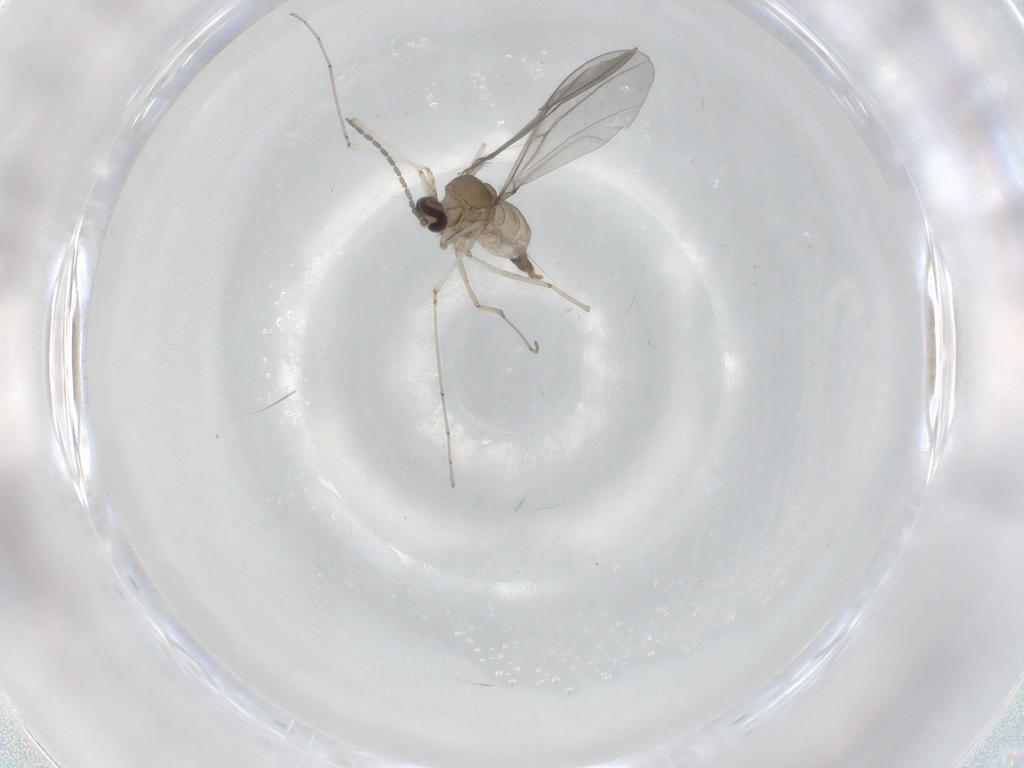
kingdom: Animalia
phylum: Arthropoda
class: Insecta
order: Diptera
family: Cecidomyiidae
